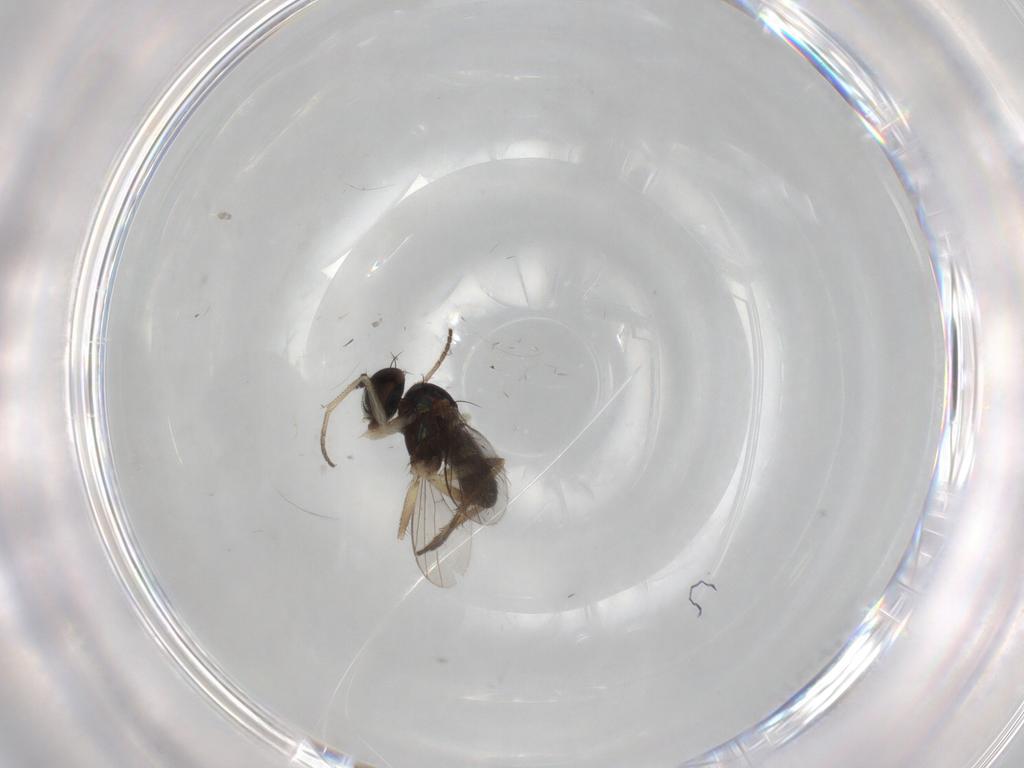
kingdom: Animalia
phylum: Arthropoda
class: Insecta
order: Diptera
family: Dolichopodidae
